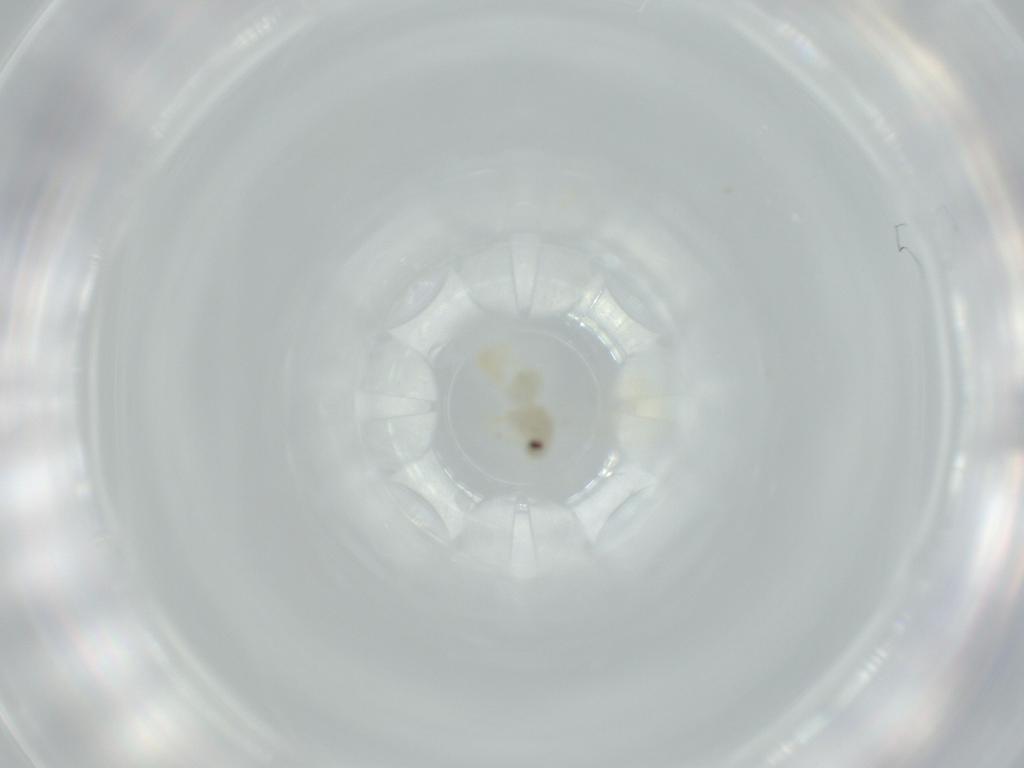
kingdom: Animalia
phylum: Arthropoda
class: Insecta
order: Hemiptera
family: Aleyrodidae
